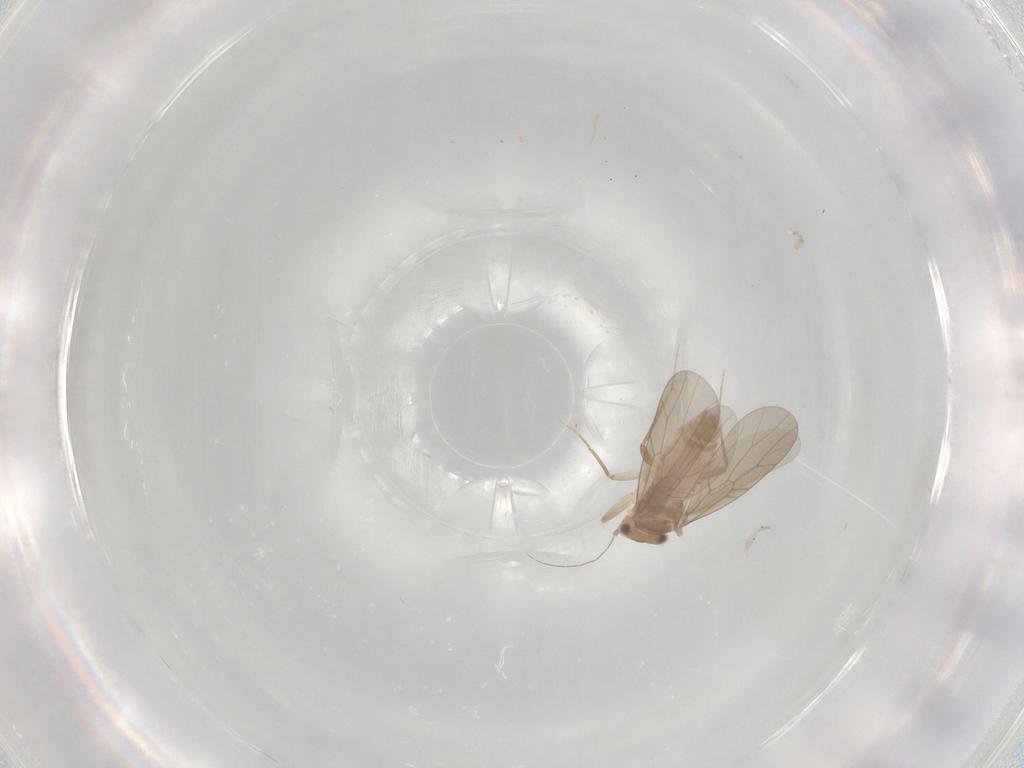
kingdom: Animalia
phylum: Arthropoda
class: Insecta
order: Psocodea
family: Lepidopsocidae
